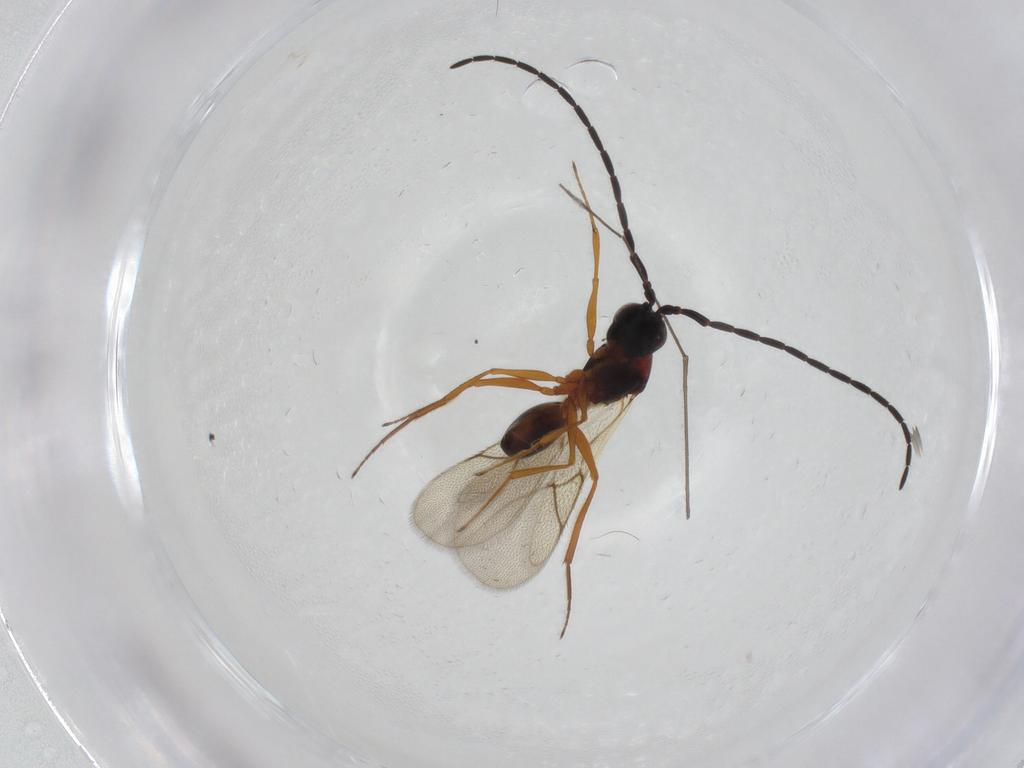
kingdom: Animalia
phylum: Arthropoda
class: Insecta
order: Hymenoptera
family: Figitidae
